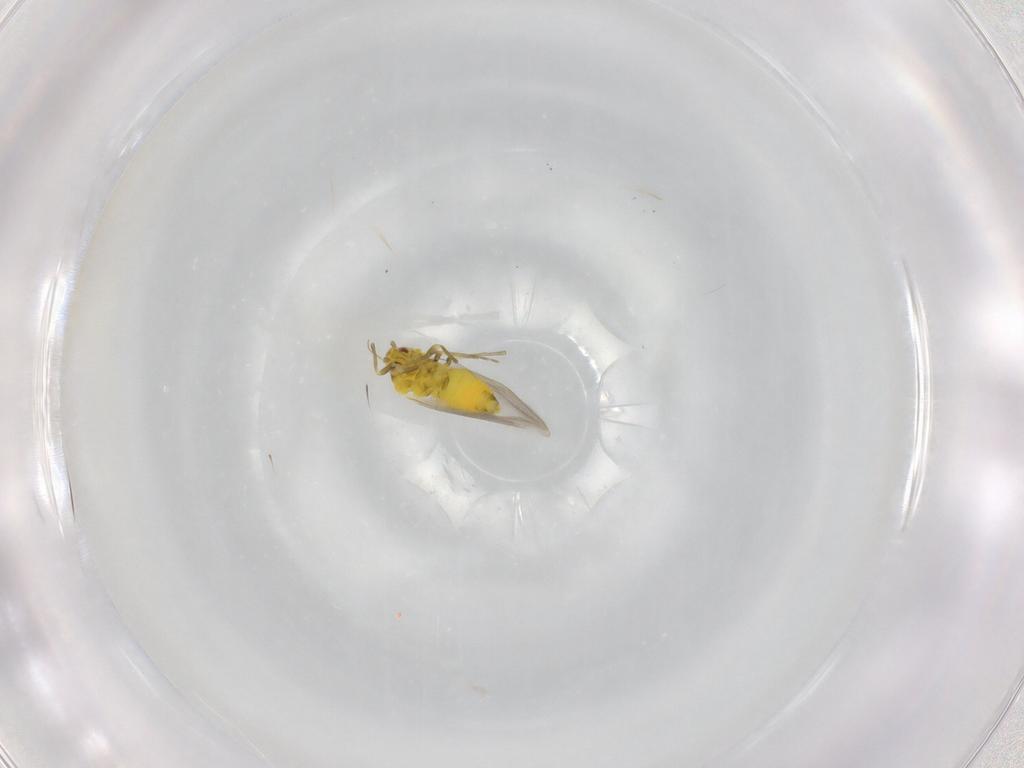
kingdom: Animalia
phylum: Arthropoda
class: Insecta
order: Hemiptera
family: Aleyrodidae
